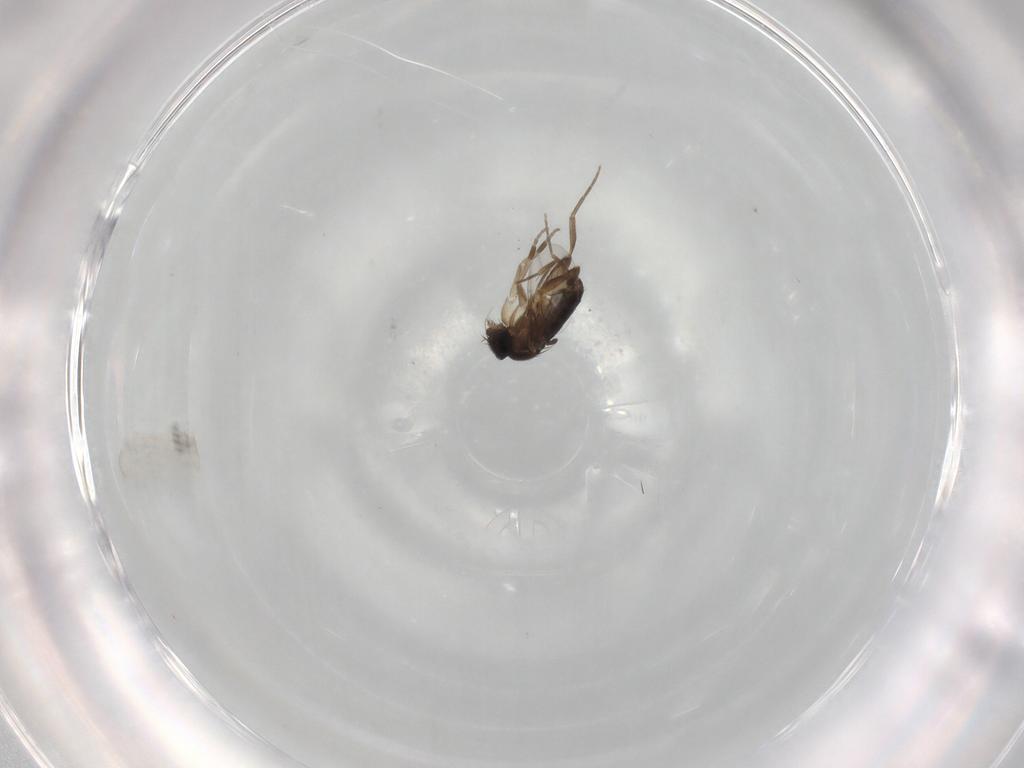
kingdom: Animalia
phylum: Arthropoda
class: Insecta
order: Diptera
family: Phoridae
